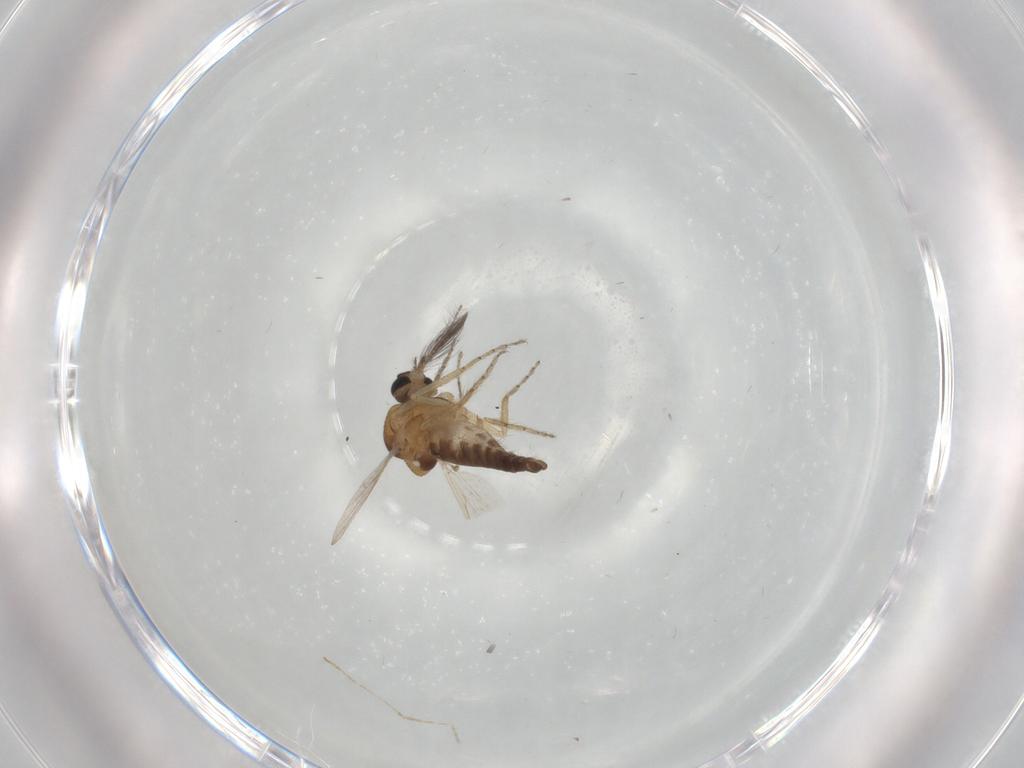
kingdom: Animalia
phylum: Arthropoda
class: Insecta
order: Diptera
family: Ceratopogonidae
